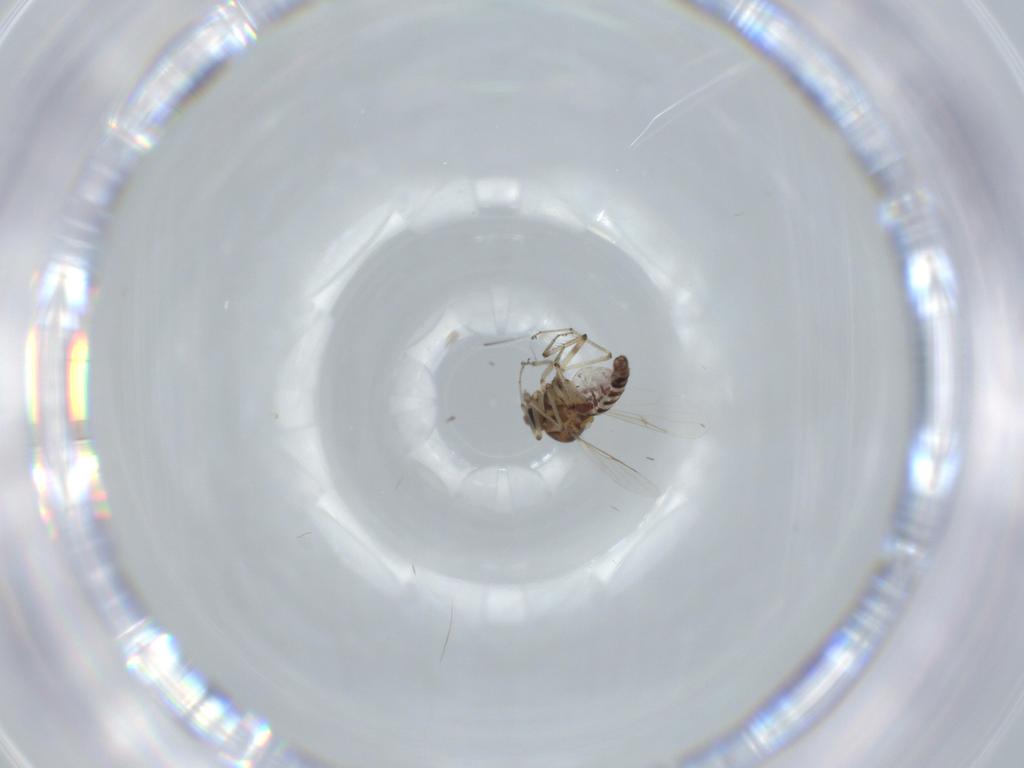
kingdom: Animalia
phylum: Arthropoda
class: Insecta
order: Diptera
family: Ceratopogonidae
